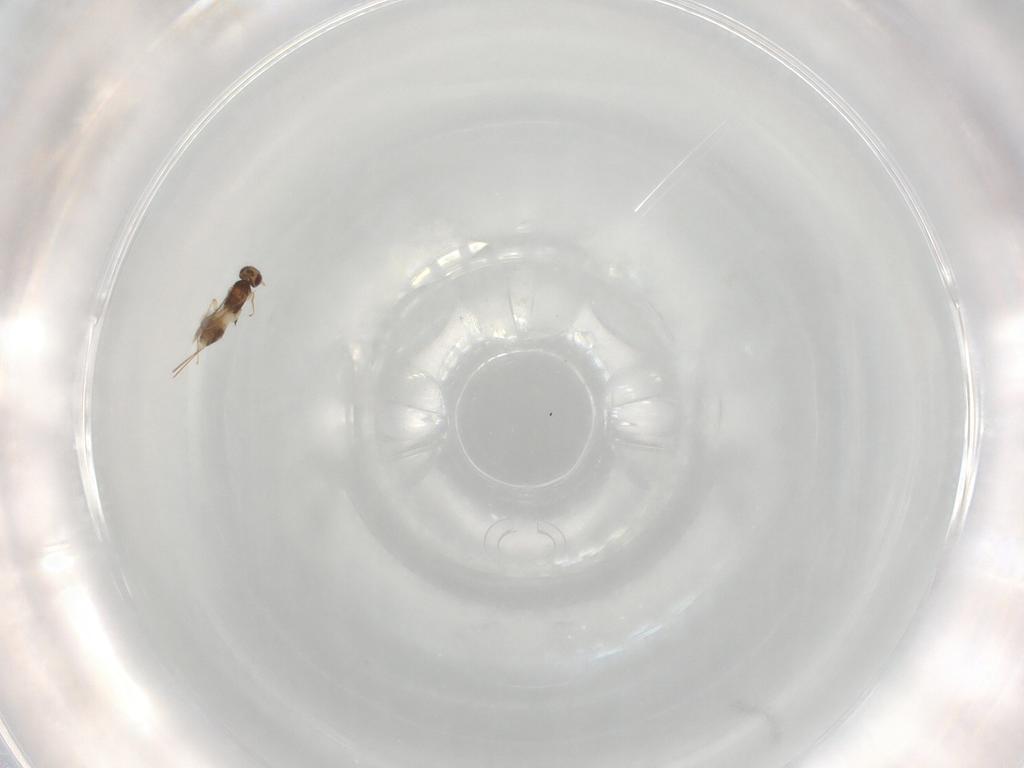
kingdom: Animalia
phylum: Arthropoda
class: Insecta
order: Hymenoptera
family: Mymaridae
